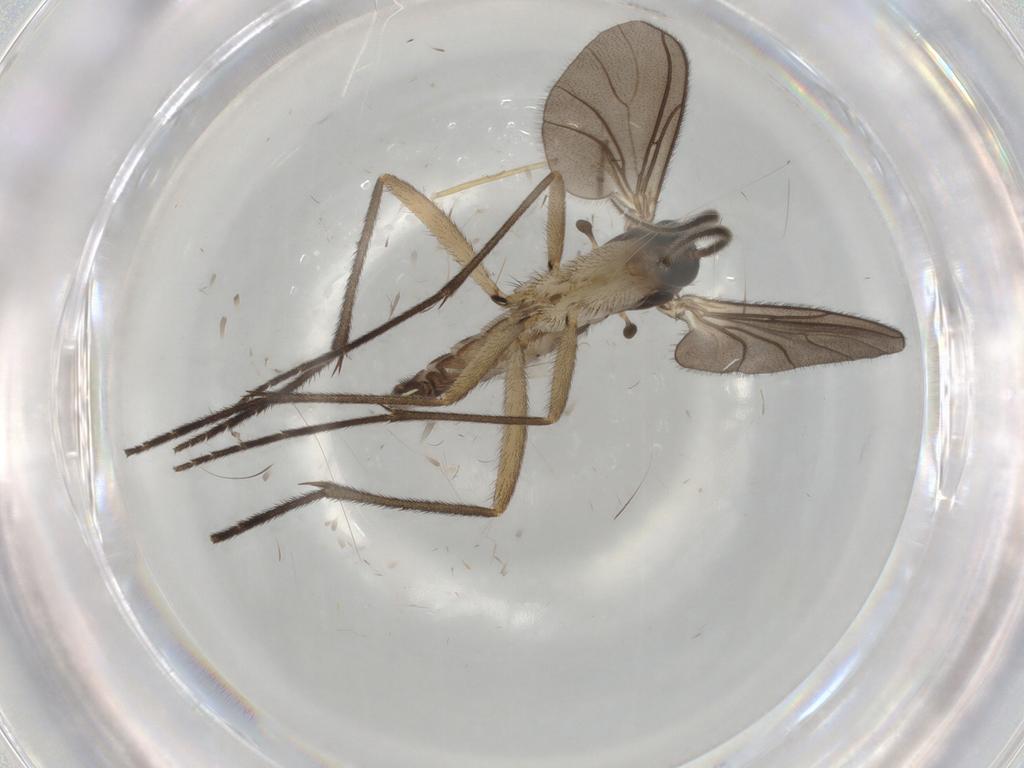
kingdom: Animalia
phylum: Arthropoda
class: Insecta
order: Diptera
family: Sciaridae
